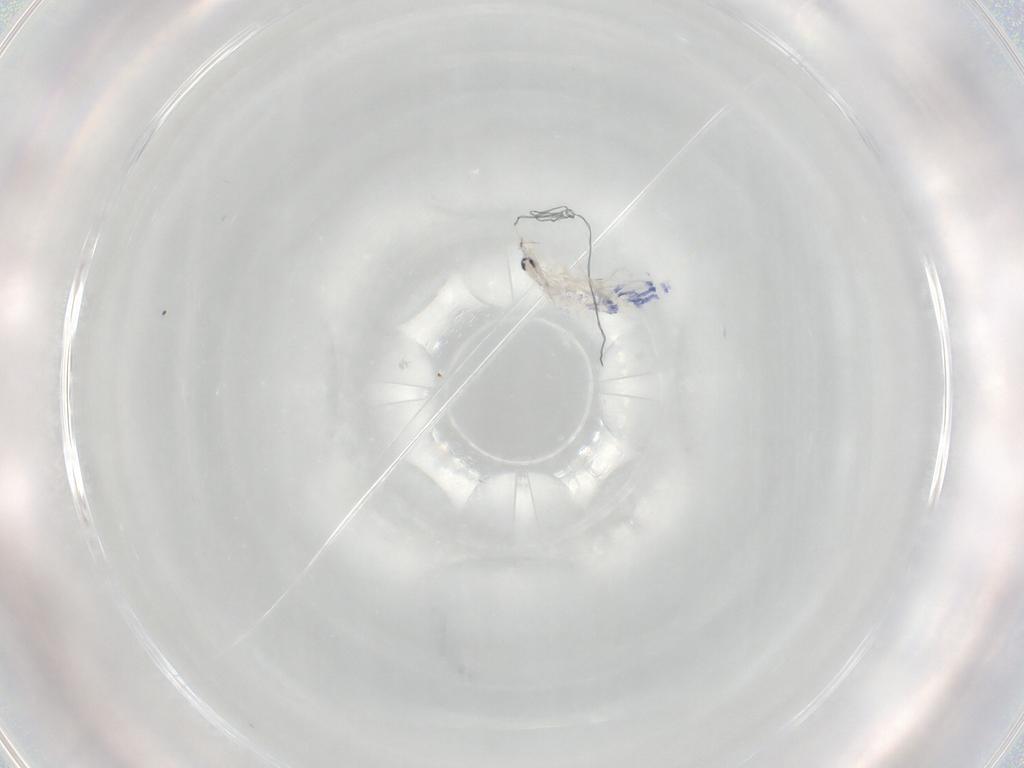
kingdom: Animalia
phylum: Arthropoda
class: Collembola
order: Entomobryomorpha
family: Entomobryidae
